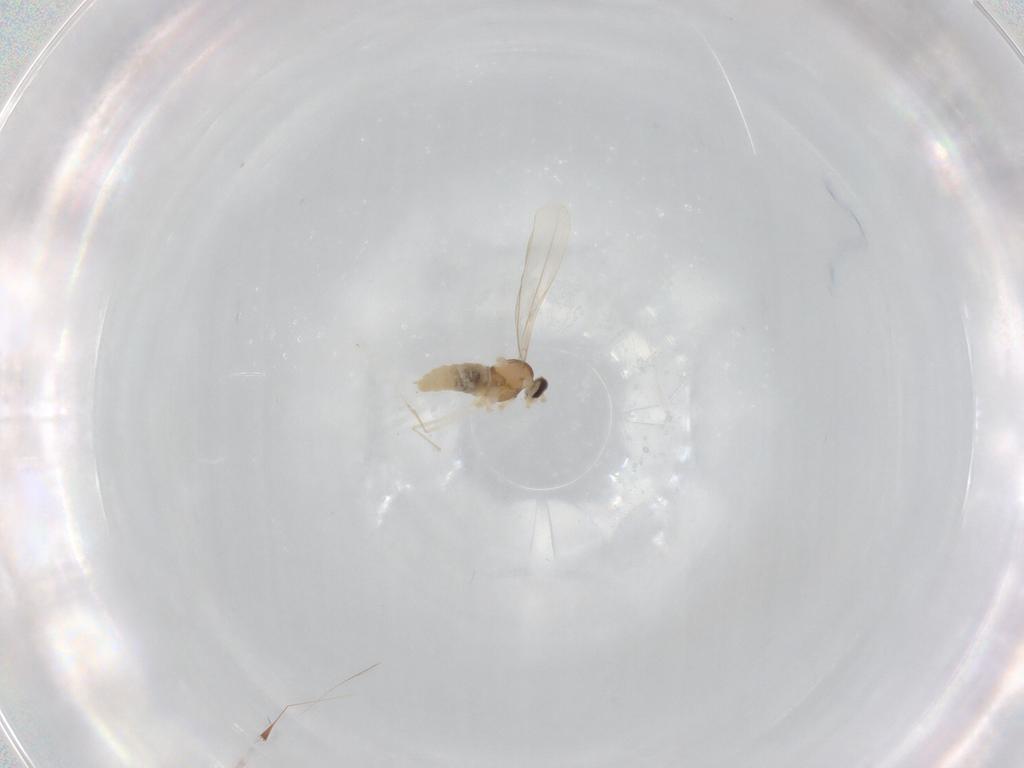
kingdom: Animalia
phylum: Arthropoda
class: Insecta
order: Diptera
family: Cecidomyiidae
